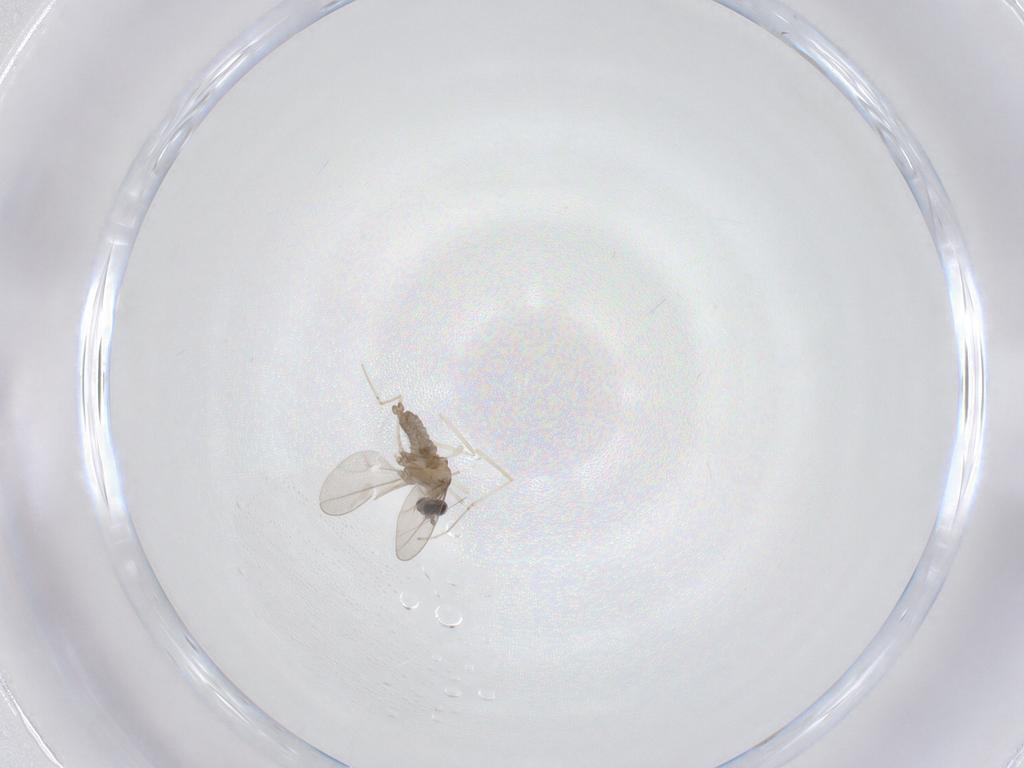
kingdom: Animalia
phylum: Arthropoda
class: Insecta
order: Diptera
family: Cecidomyiidae
